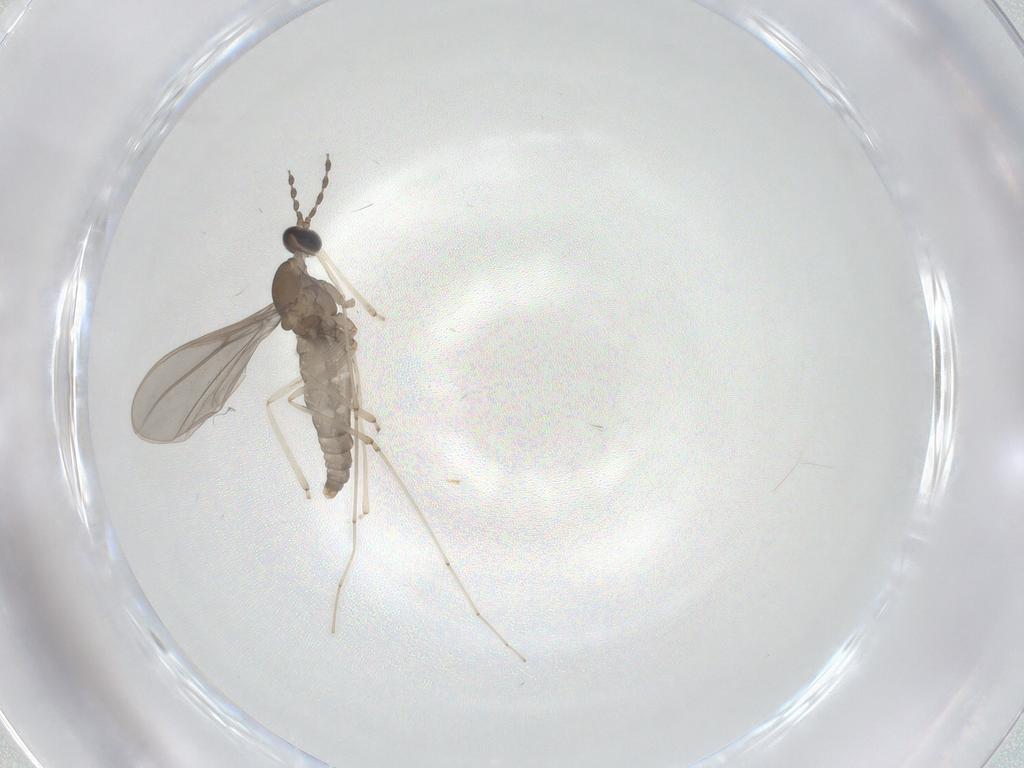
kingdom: Animalia
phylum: Arthropoda
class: Insecta
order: Diptera
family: Cecidomyiidae
